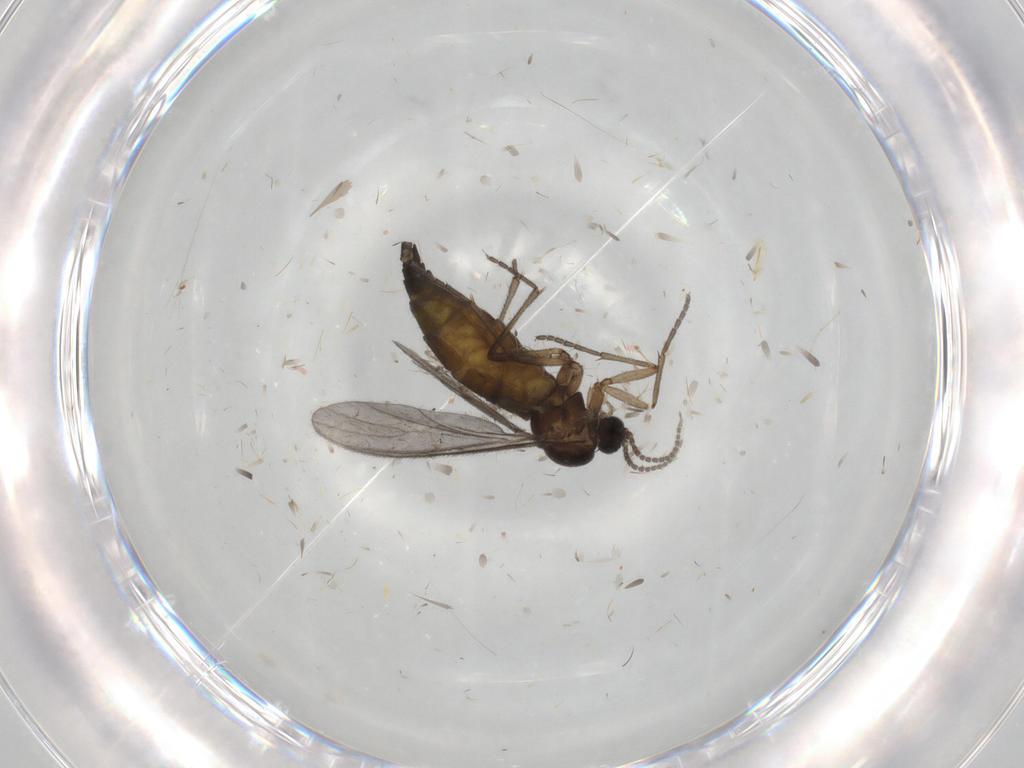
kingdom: Animalia
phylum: Arthropoda
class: Insecta
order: Diptera
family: Sciaridae
